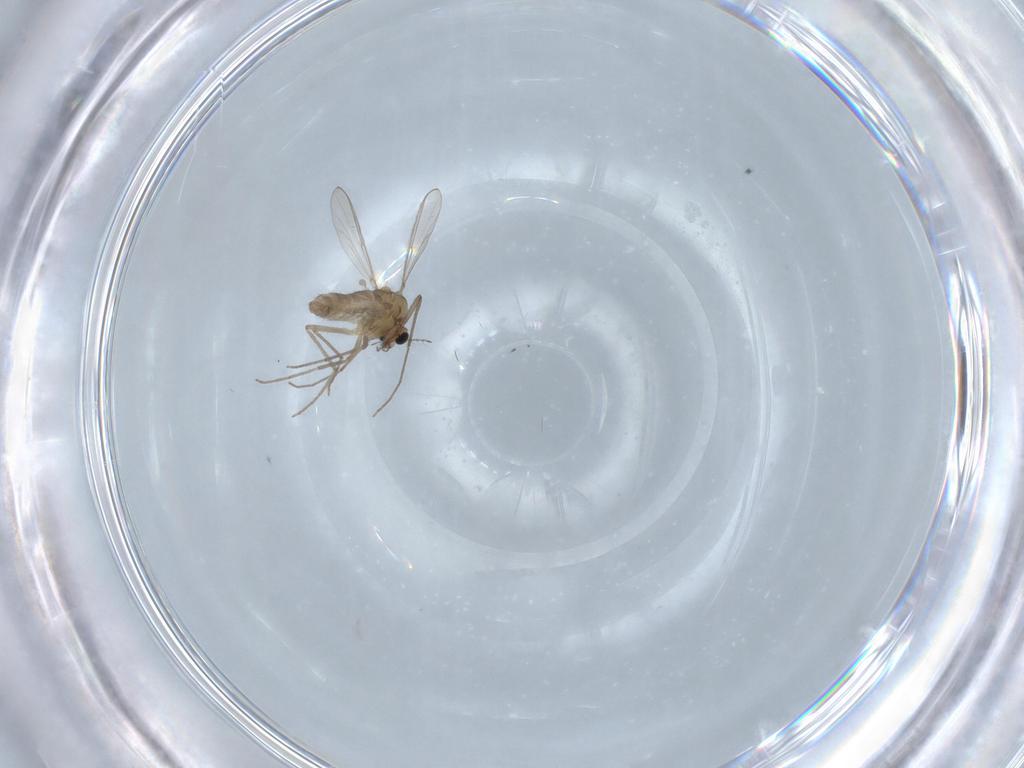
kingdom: Animalia
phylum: Arthropoda
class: Insecta
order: Diptera
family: Chironomidae
